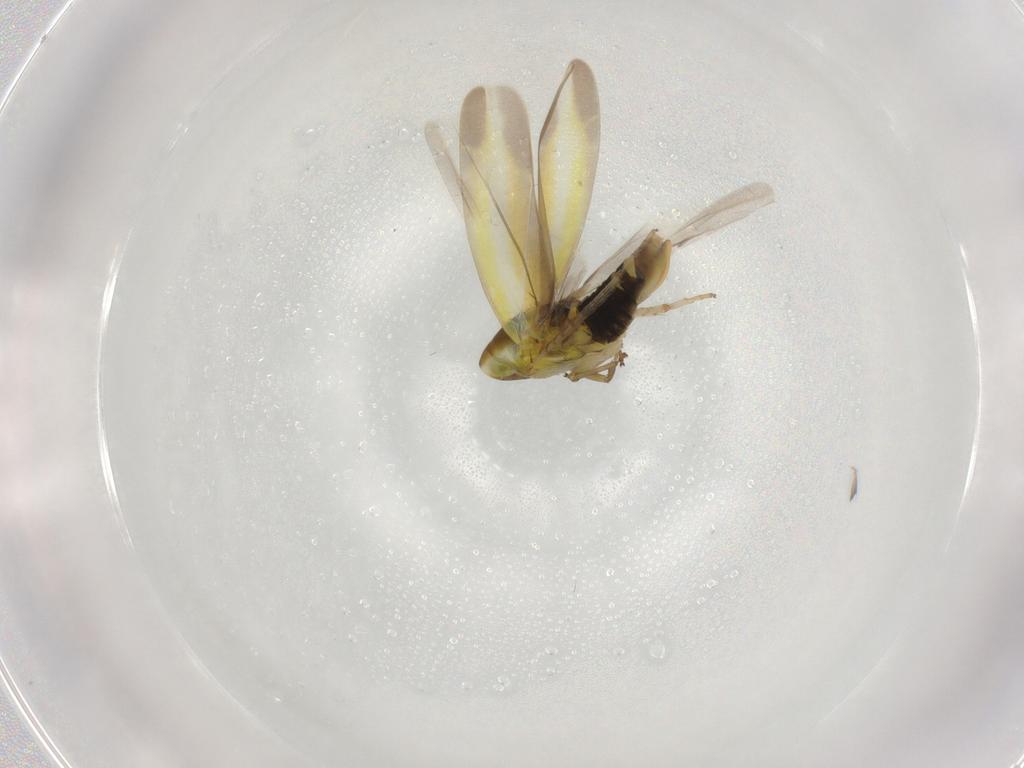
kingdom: Animalia
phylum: Arthropoda
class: Insecta
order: Hemiptera
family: Cicadellidae
